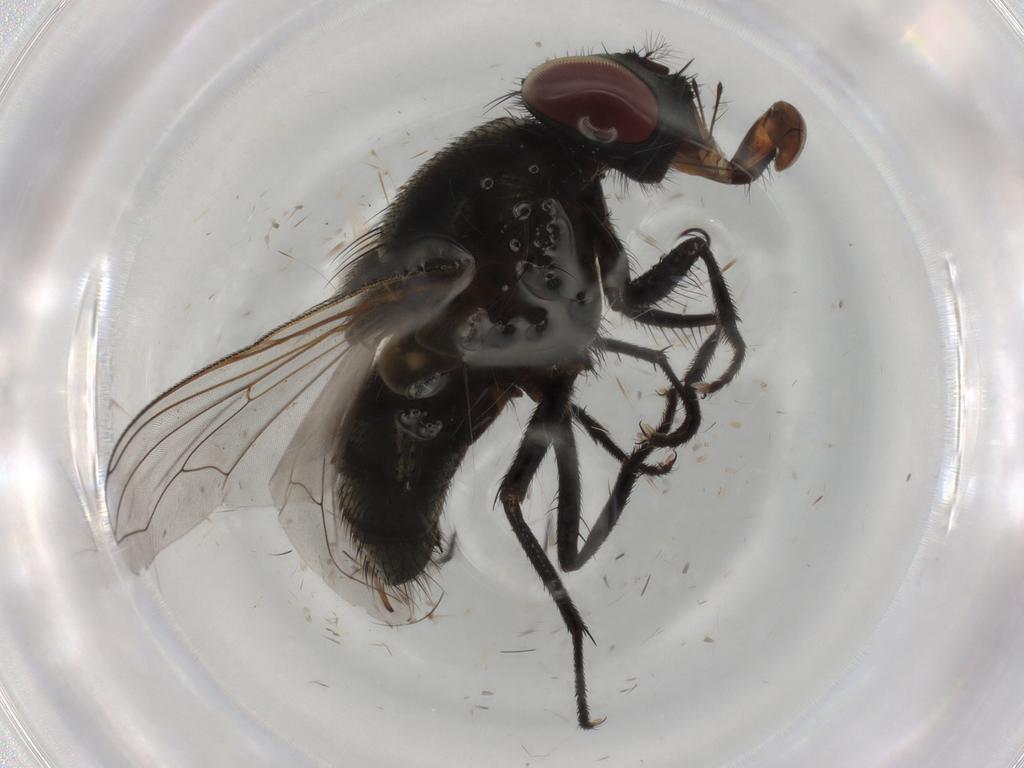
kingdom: Animalia
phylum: Arthropoda
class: Insecta
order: Diptera
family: Muscidae
